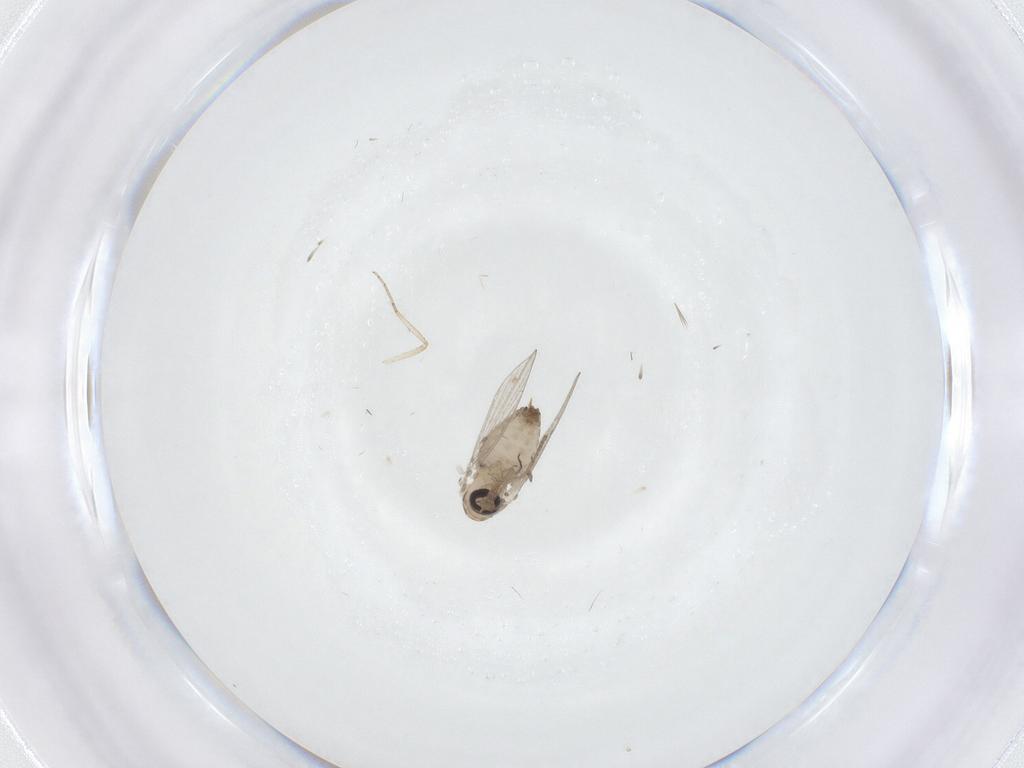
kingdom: Animalia
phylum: Arthropoda
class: Insecta
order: Diptera
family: Psychodidae
